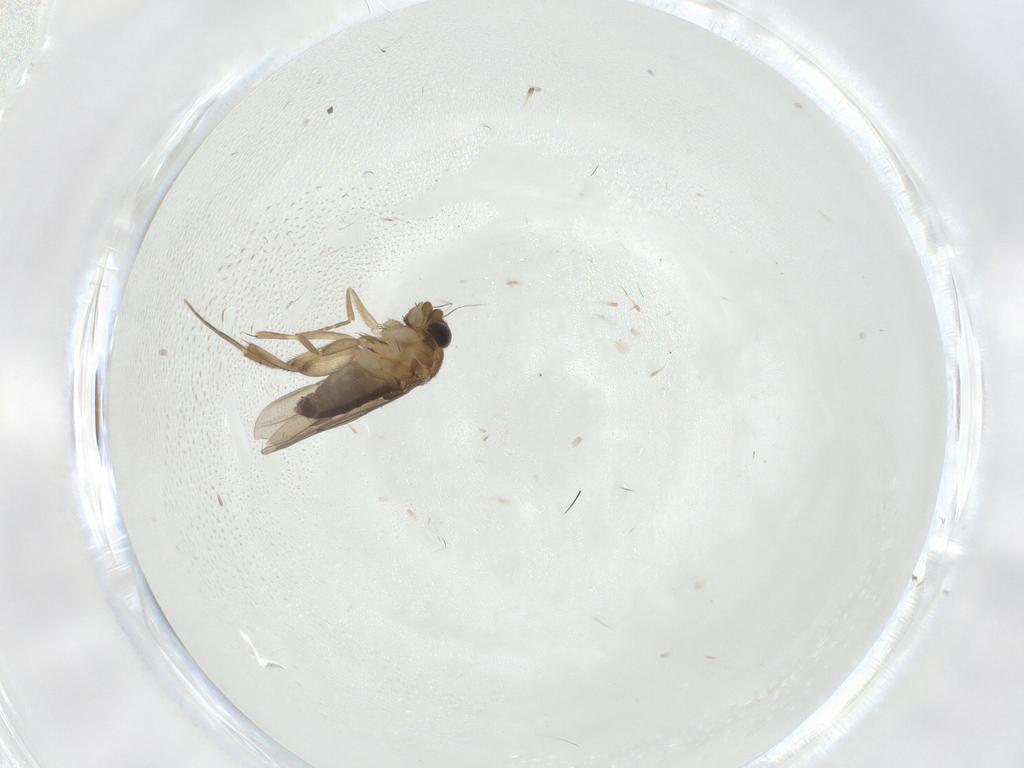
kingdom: Animalia
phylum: Arthropoda
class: Insecta
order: Diptera
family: Phoridae
